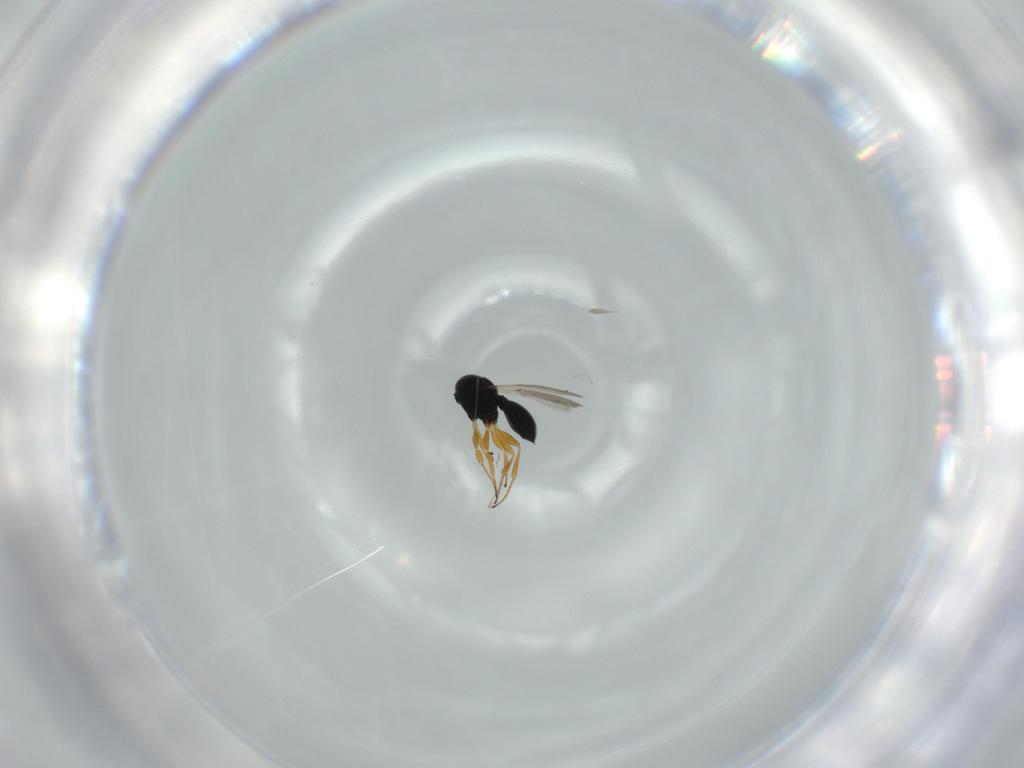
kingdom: Animalia
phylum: Arthropoda
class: Insecta
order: Hymenoptera
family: Scelionidae
